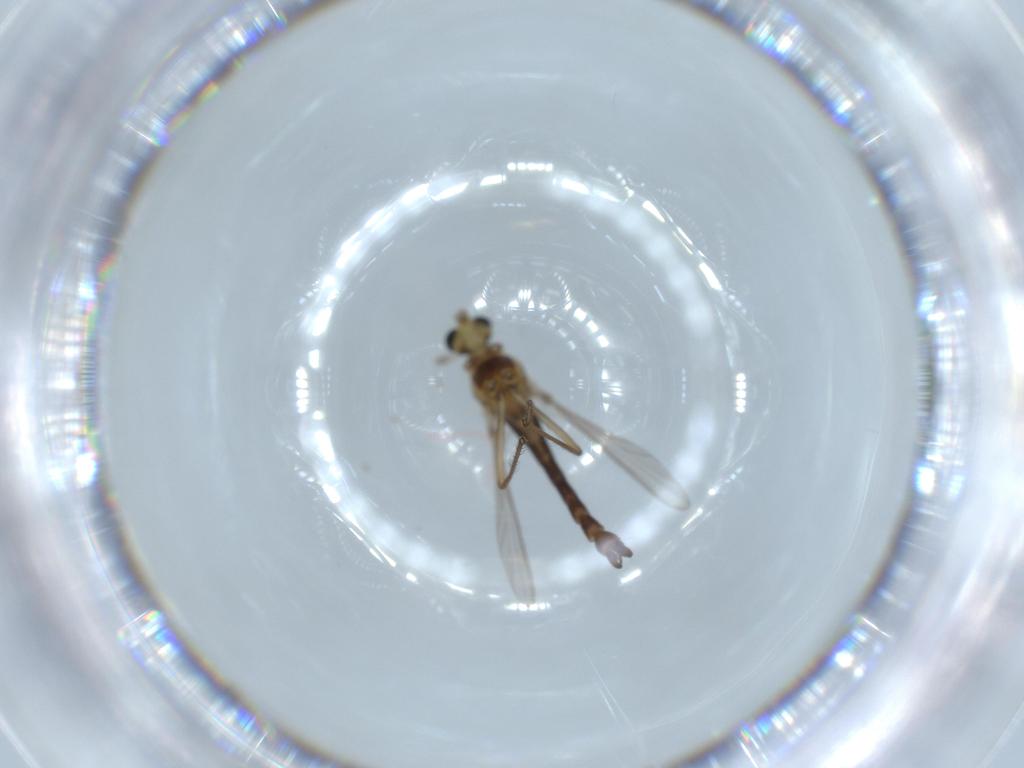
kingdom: Animalia
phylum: Arthropoda
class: Insecta
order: Diptera
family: Chironomidae
